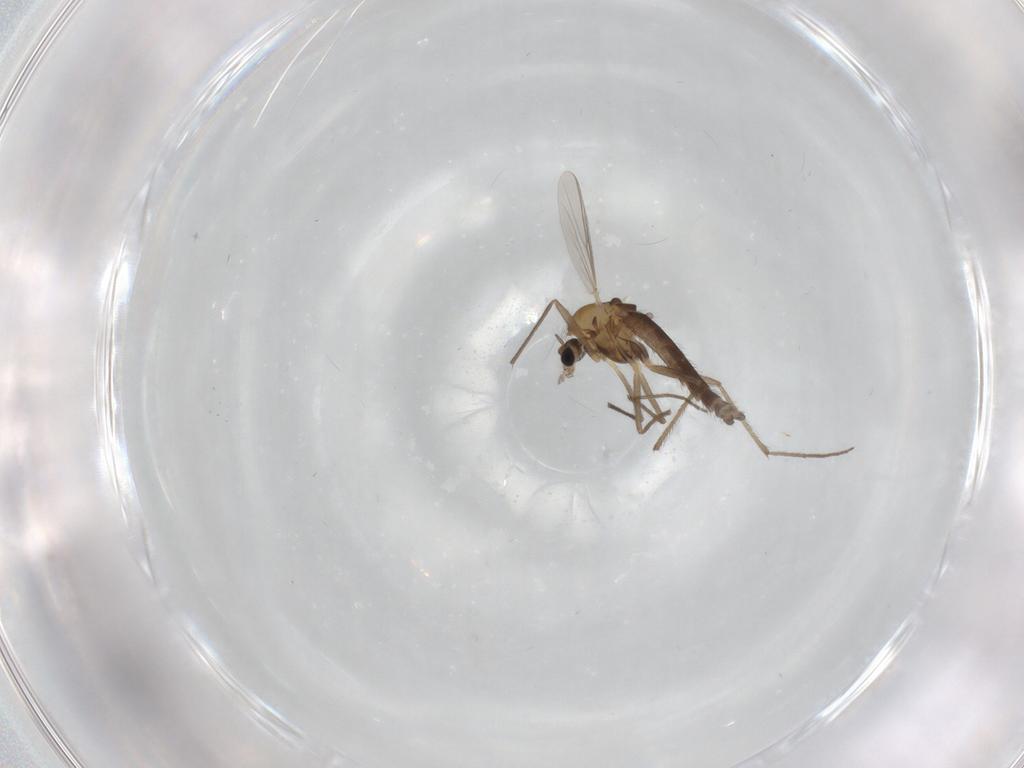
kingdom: Animalia
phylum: Arthropoda
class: Insecta
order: Diptera
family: Chironomidae
